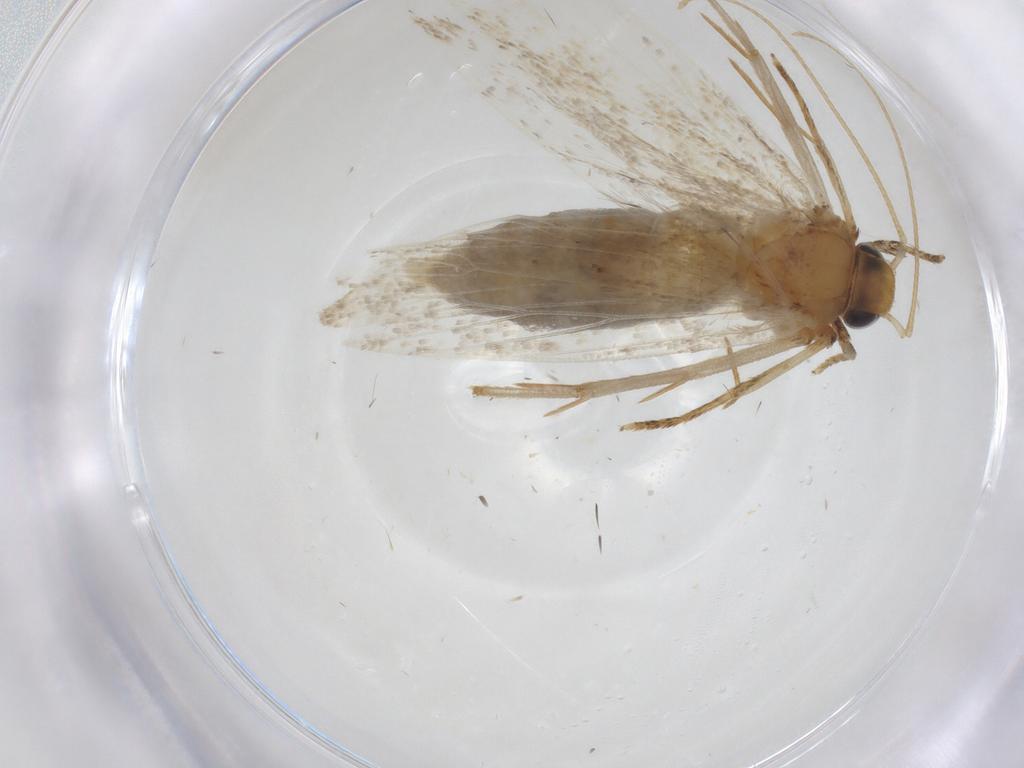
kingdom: Animalia
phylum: Arthropoda
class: Insecta
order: Lepidoptera
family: Oecophoridae
